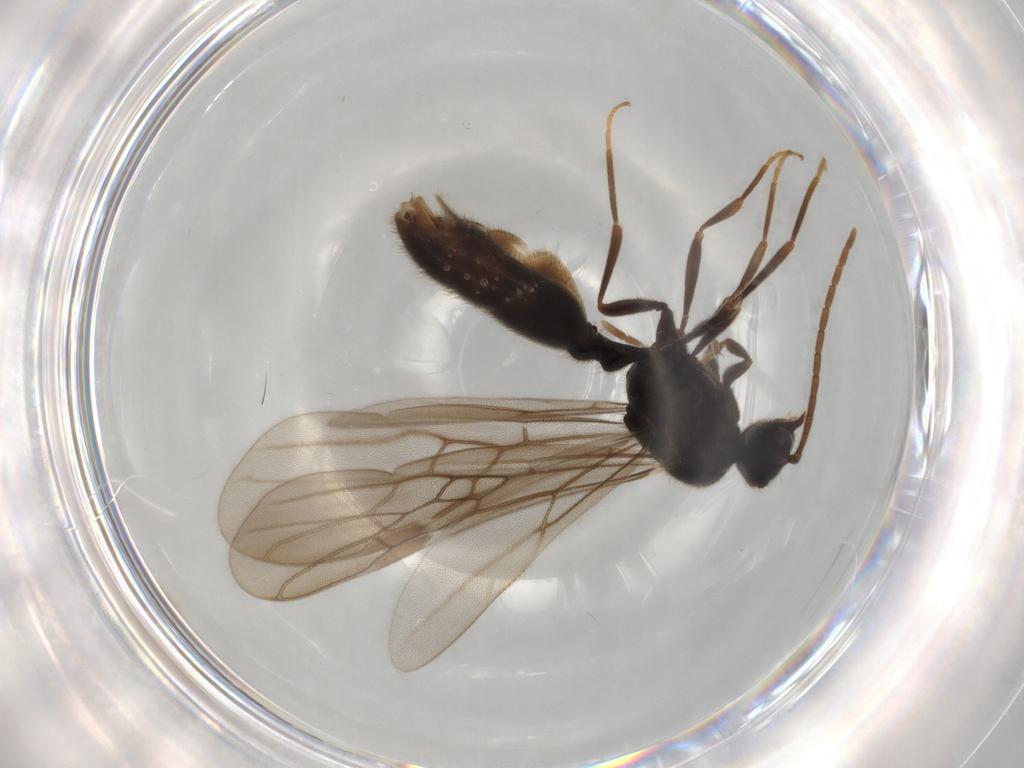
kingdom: Animalia
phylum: Arthropoda
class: Insecta
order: Hymenoptera
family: Formicidae
